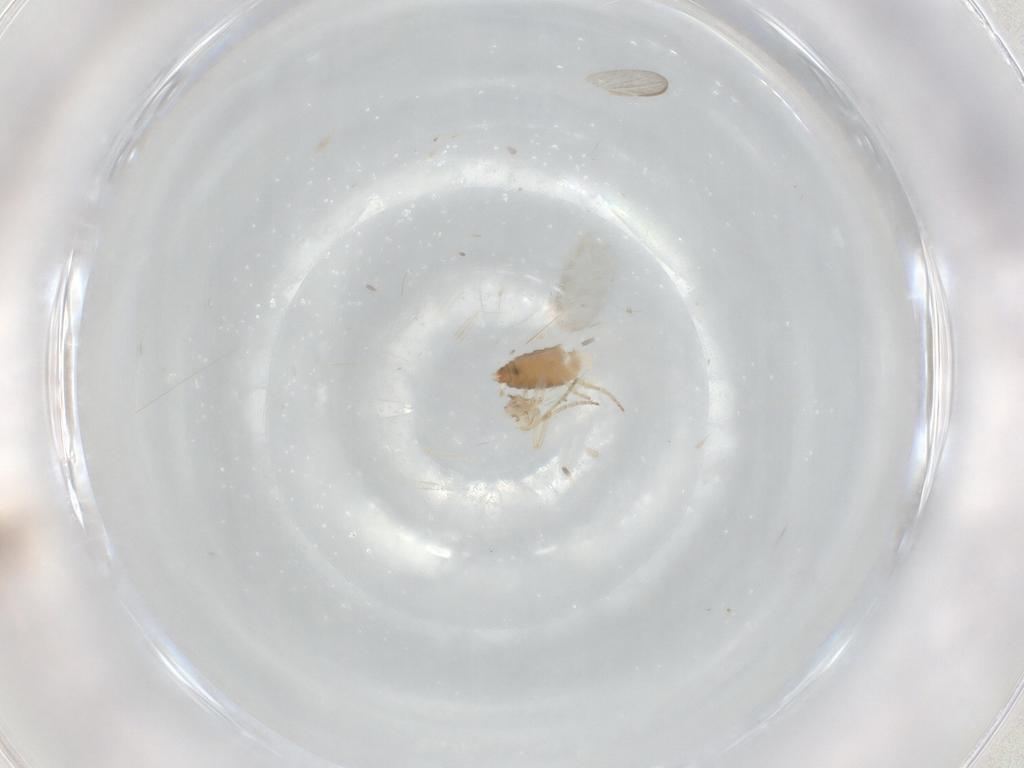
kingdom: Animalia
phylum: Arthropoda
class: Insecta
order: Diptera
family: Ceratopogonidae
